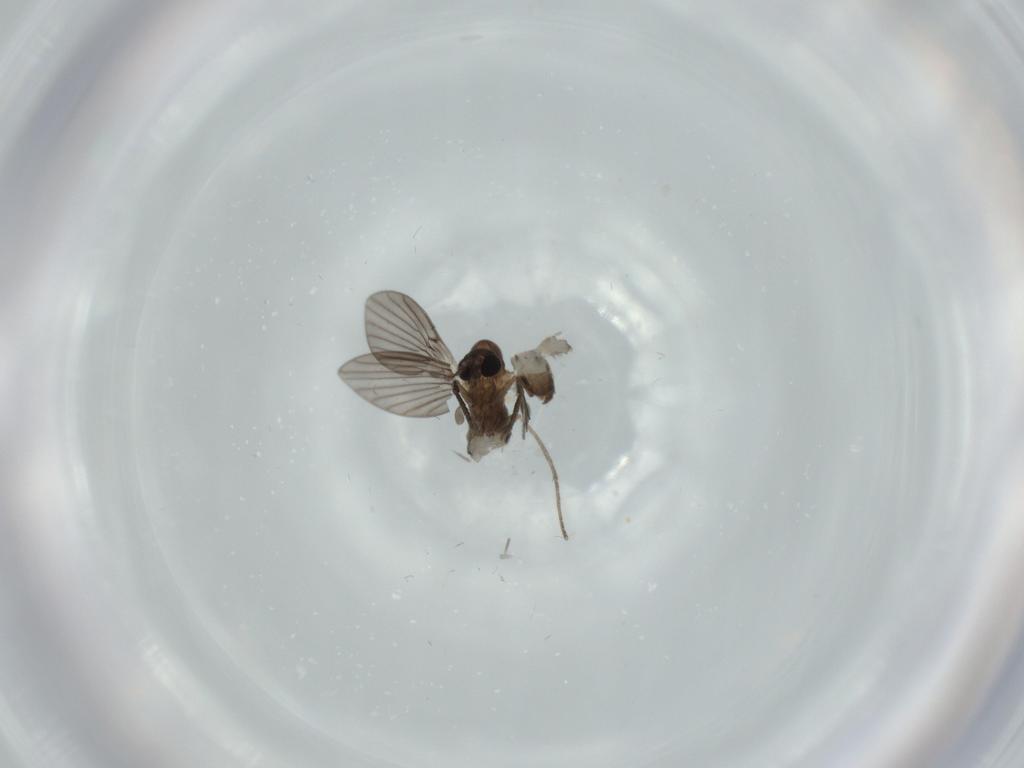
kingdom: Animalia
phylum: Arthropoda
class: Insecta
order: Diptera
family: Psychodidae
